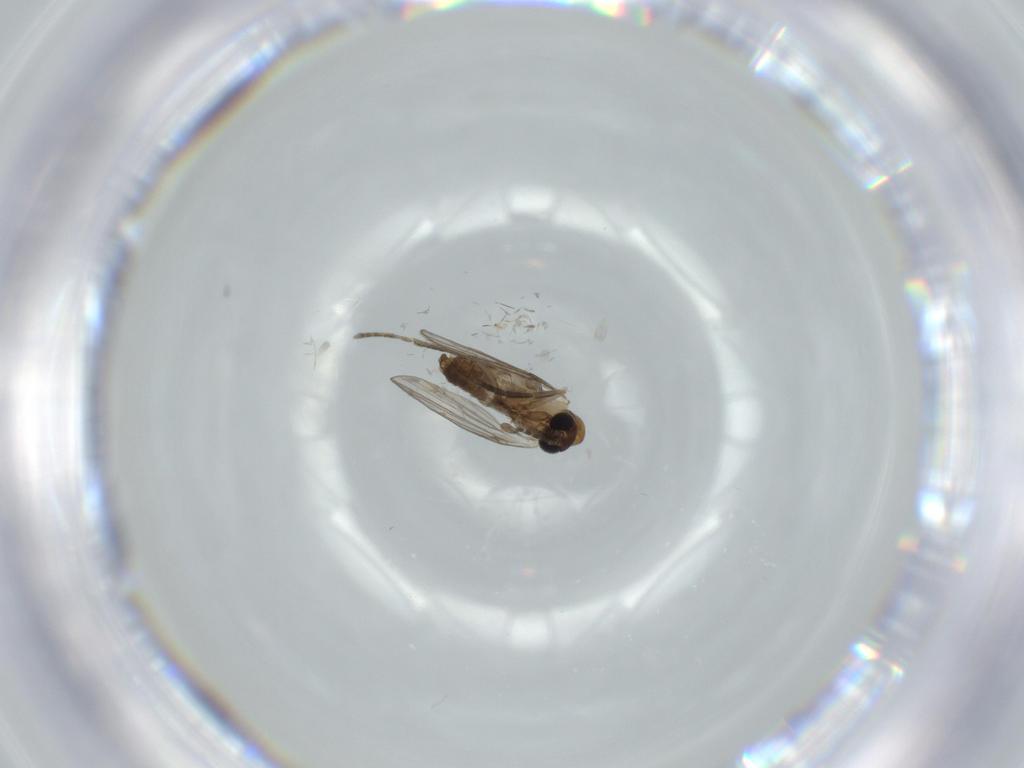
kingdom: Animalia
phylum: Arthropoda
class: Insecta
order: Diptera
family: Psychodidae
